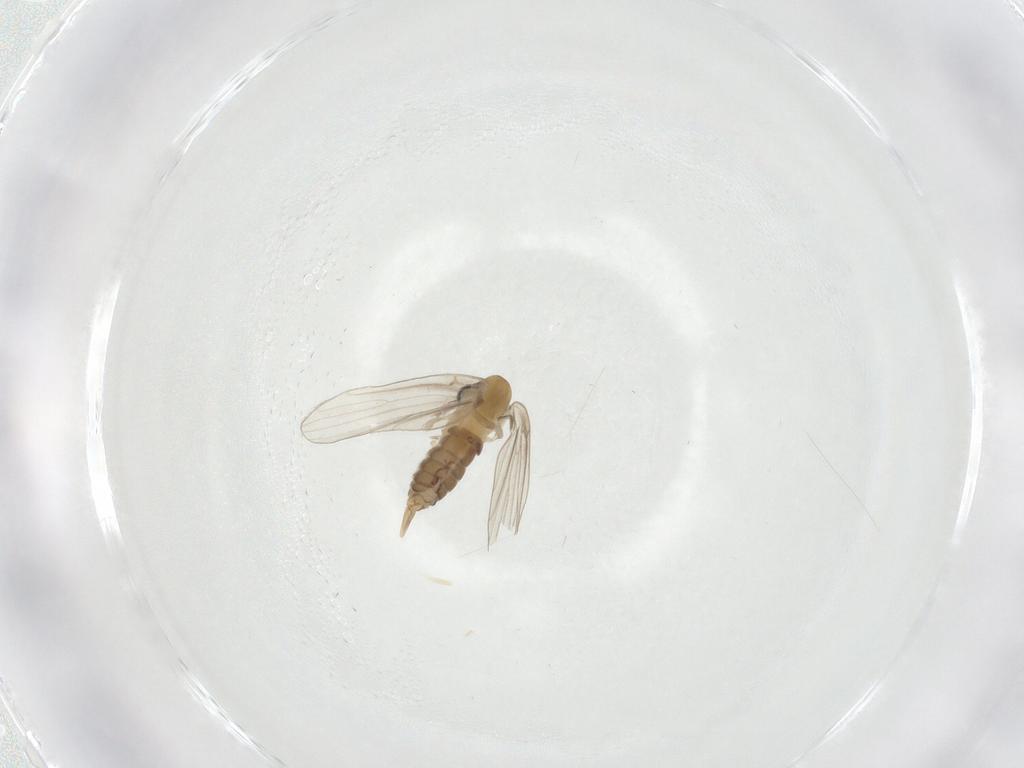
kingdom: Animalia
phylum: Arthropoda
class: Insecta
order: Diptera
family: Psychodidae
